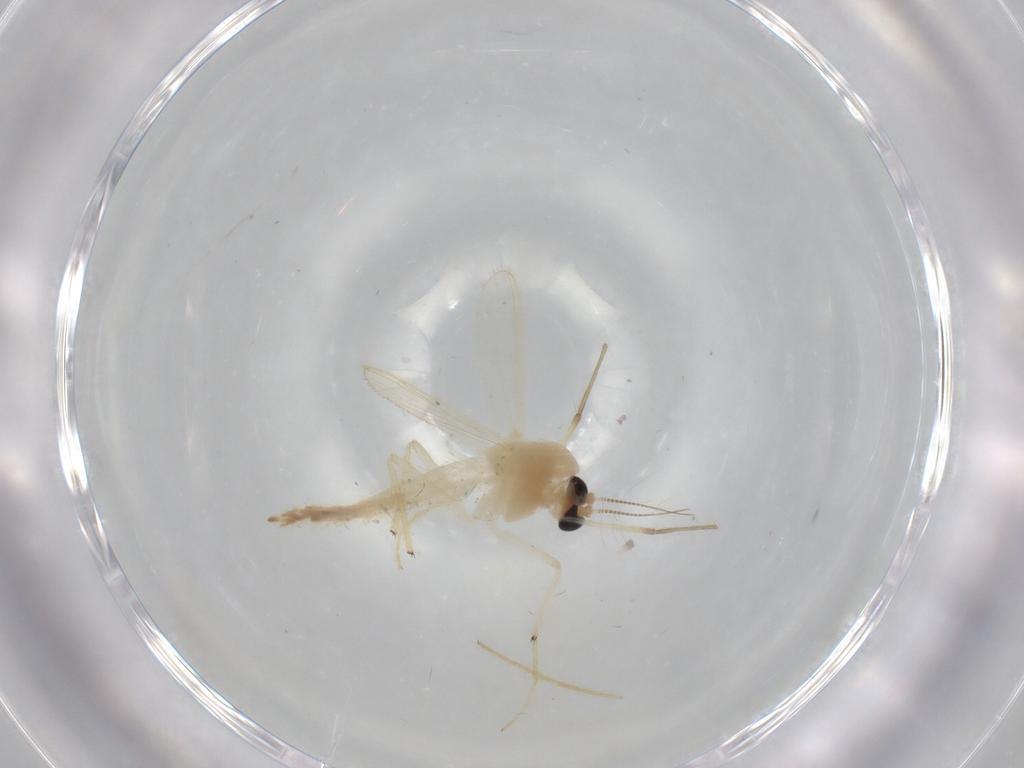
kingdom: Animalia
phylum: Arthropoda
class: Insecta
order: Diptera
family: Chironomidae
